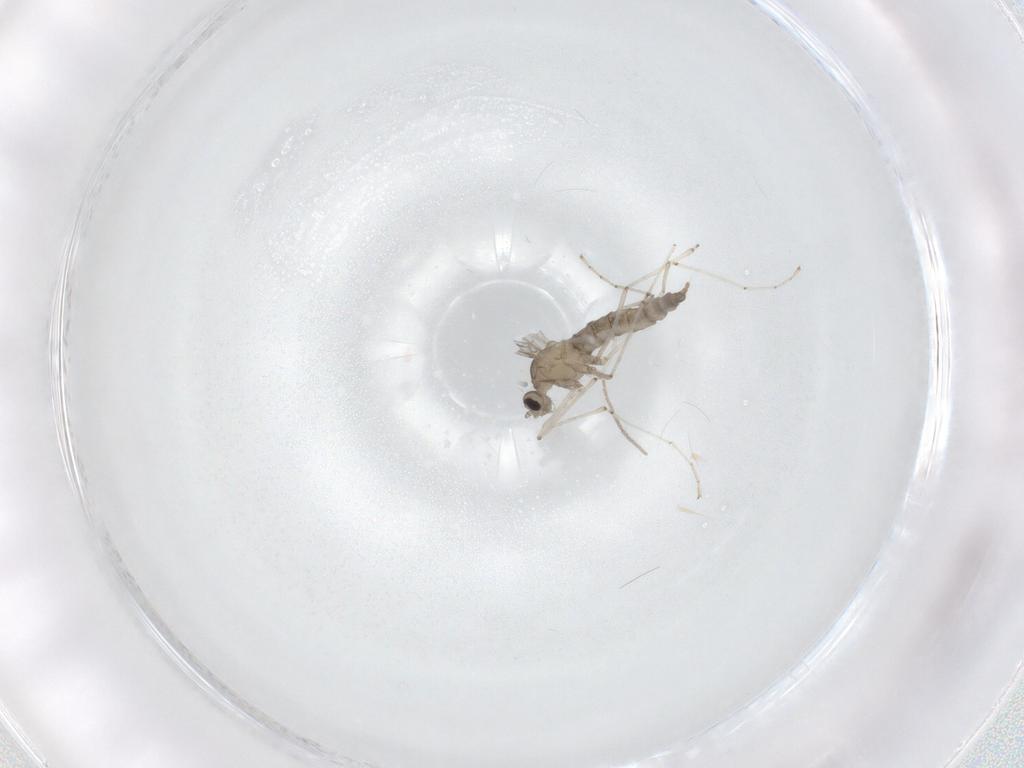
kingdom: Animalia
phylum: Arthropoda
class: Insecta
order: Diptera
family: Chironomidae
